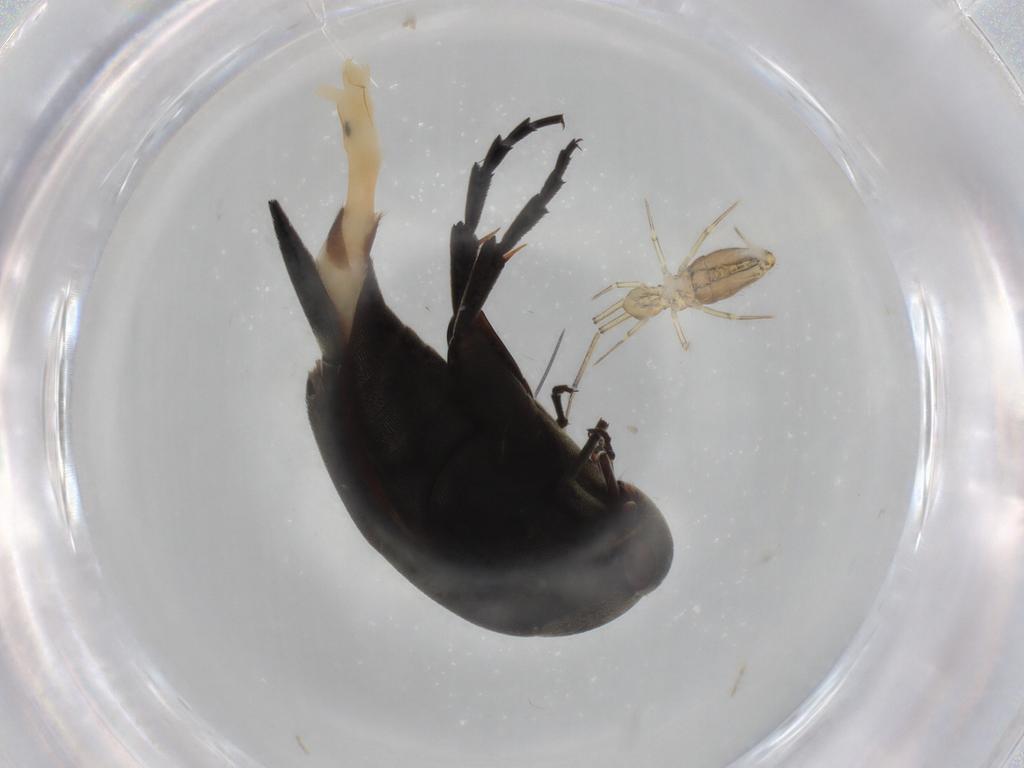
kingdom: Animalia
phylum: Arthropoda
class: Insecta
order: Coleoptera
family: Mordellidae
